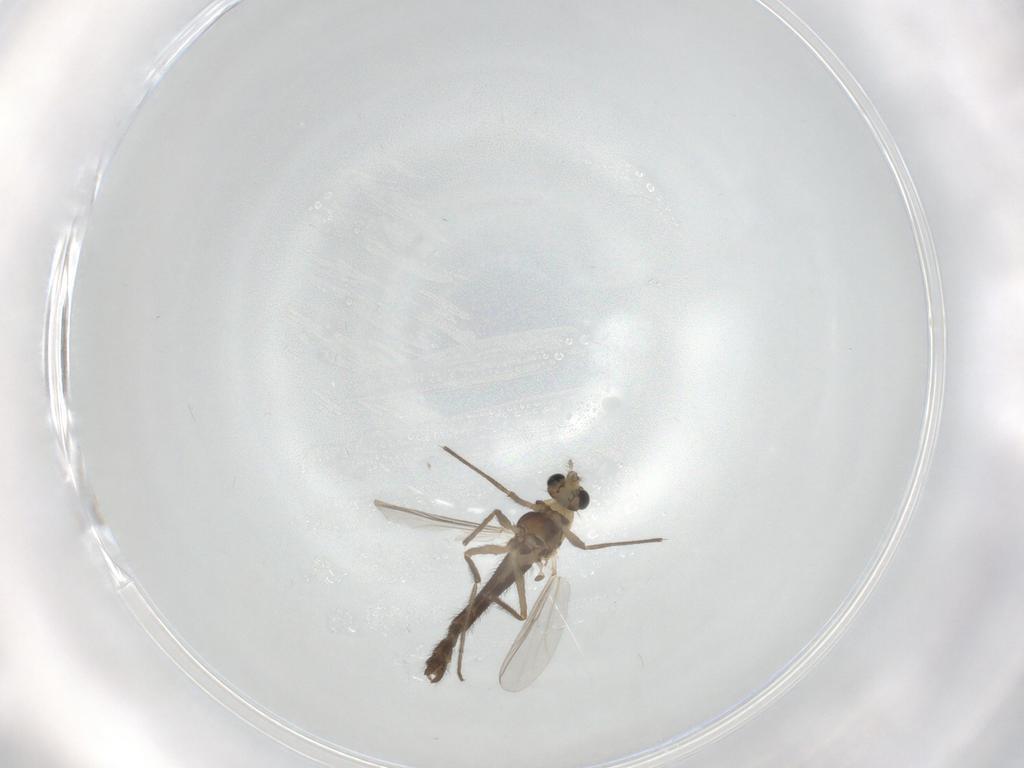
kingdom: Animalia
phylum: Arthropoda
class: Insecta
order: Diptera
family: Chironomidae
